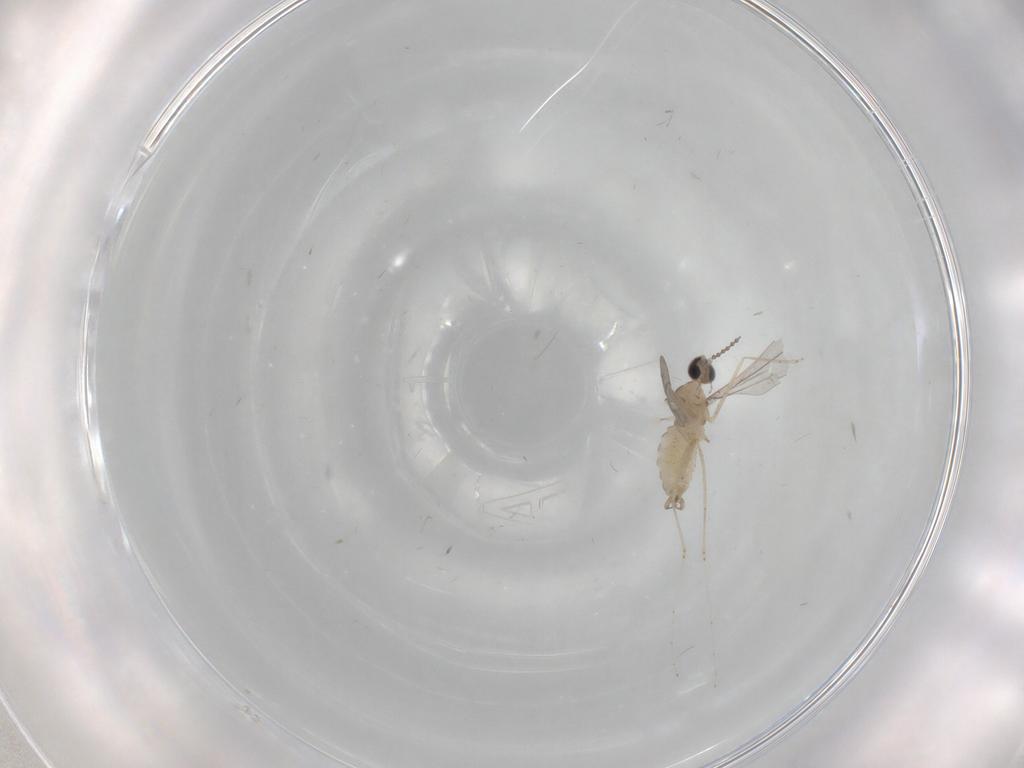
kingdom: Animalia
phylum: Arthropoda
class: Insecta
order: Diptera
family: Cecidomyiidae
